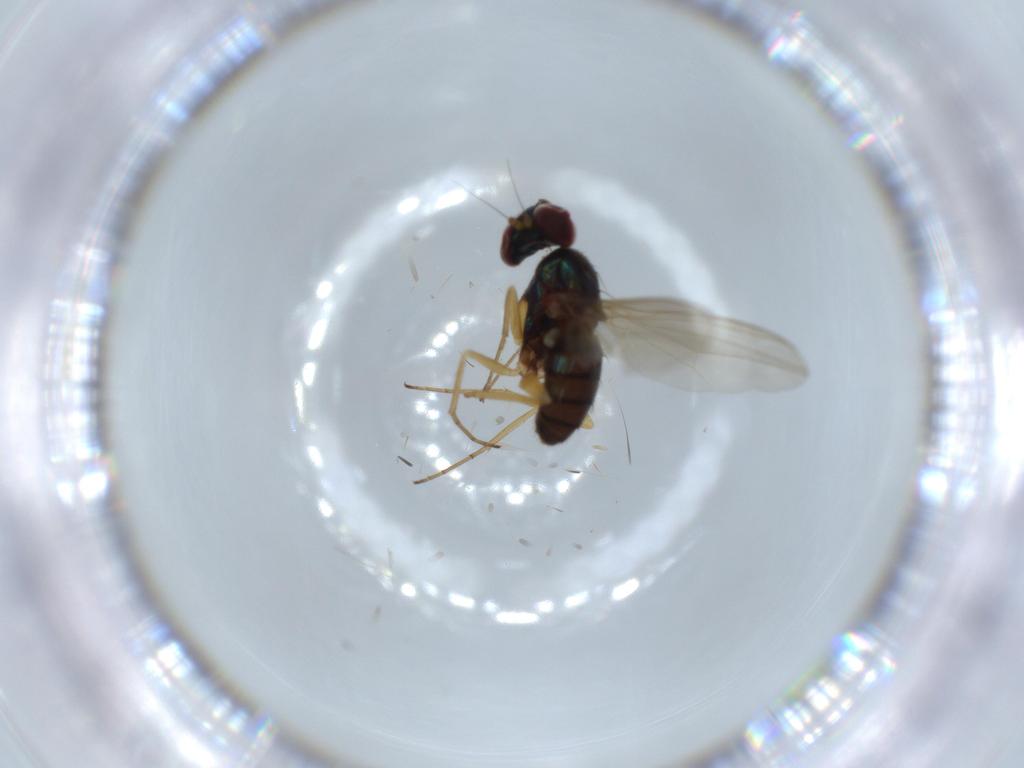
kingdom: Animalia
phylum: Arthropoda
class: Insecta
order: Diptera
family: Dolichopodidae
